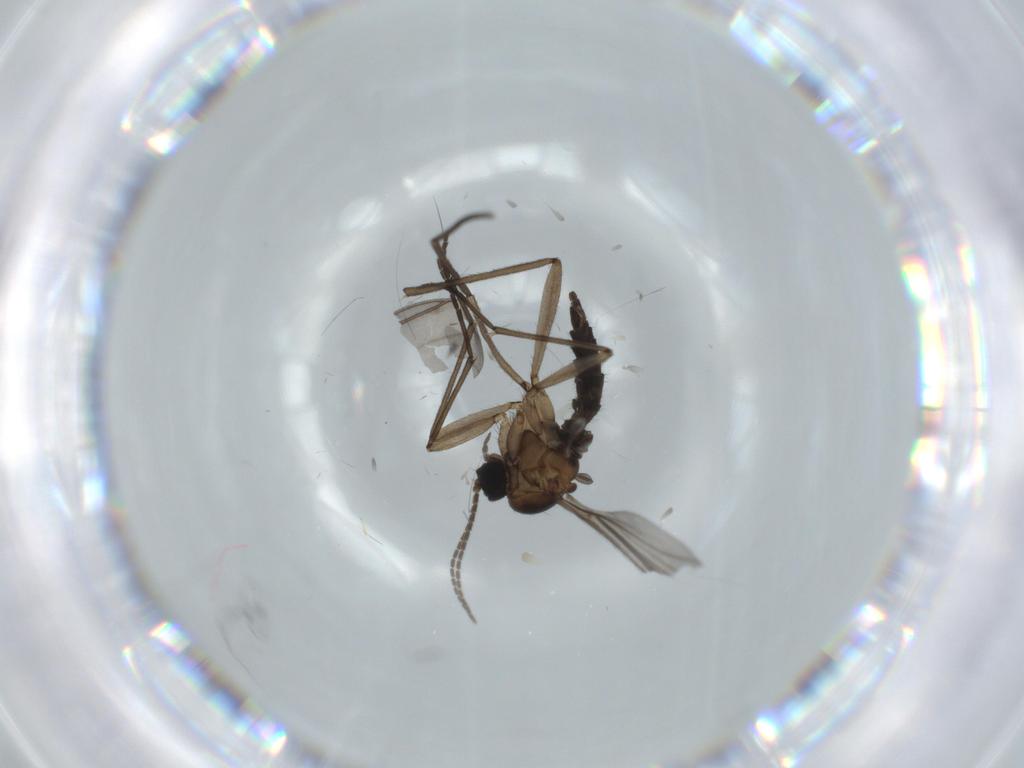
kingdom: Animalia
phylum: Arthropoda
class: Insecta
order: Diptera
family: Sciaridae
